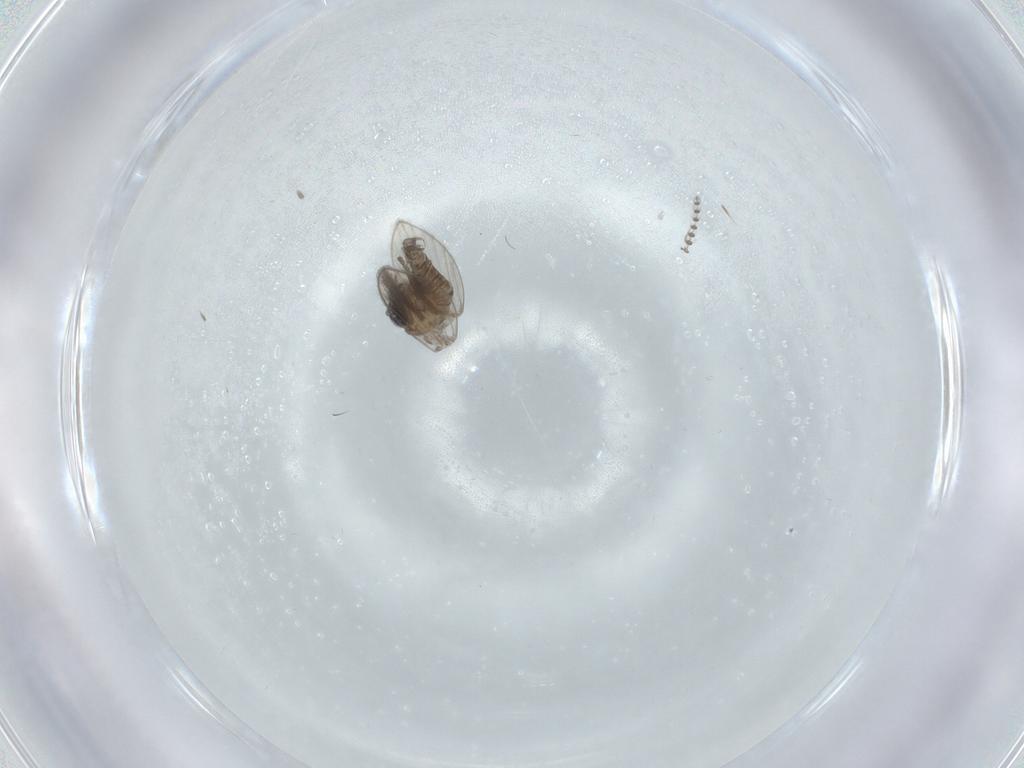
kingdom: Animalia
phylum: Arthropoda
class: Insecta
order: Diptera
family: Psychodidae
